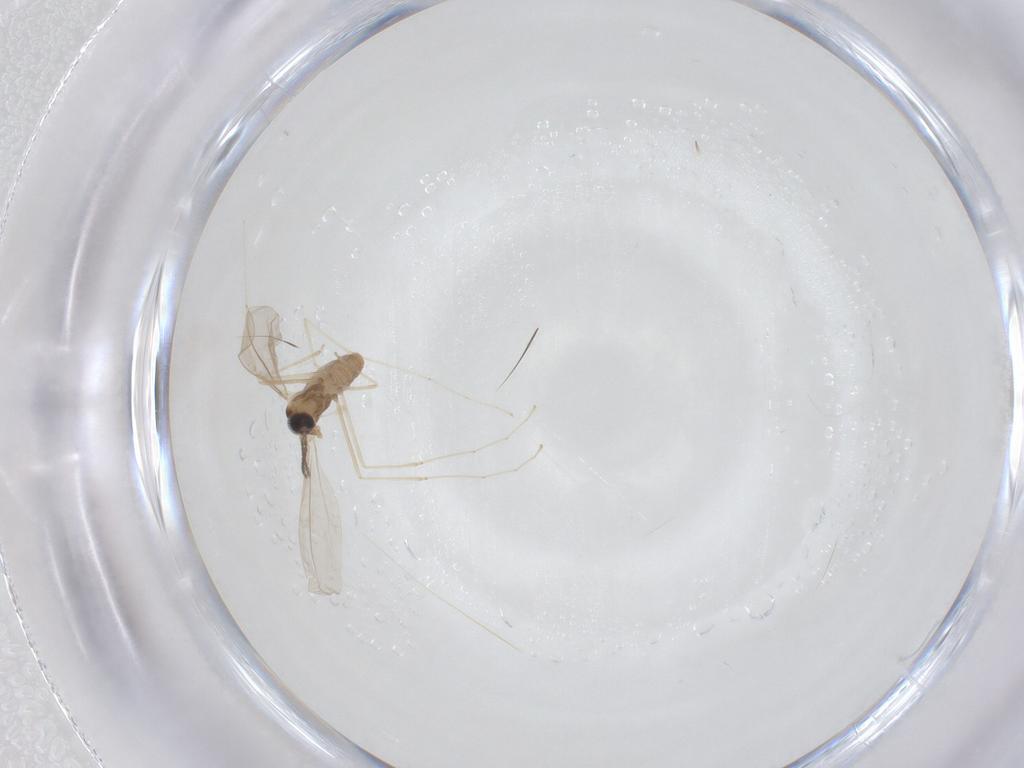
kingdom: Animalia
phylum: Arthropoda
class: Insecta
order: Diptera
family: Cecidomyiidae
